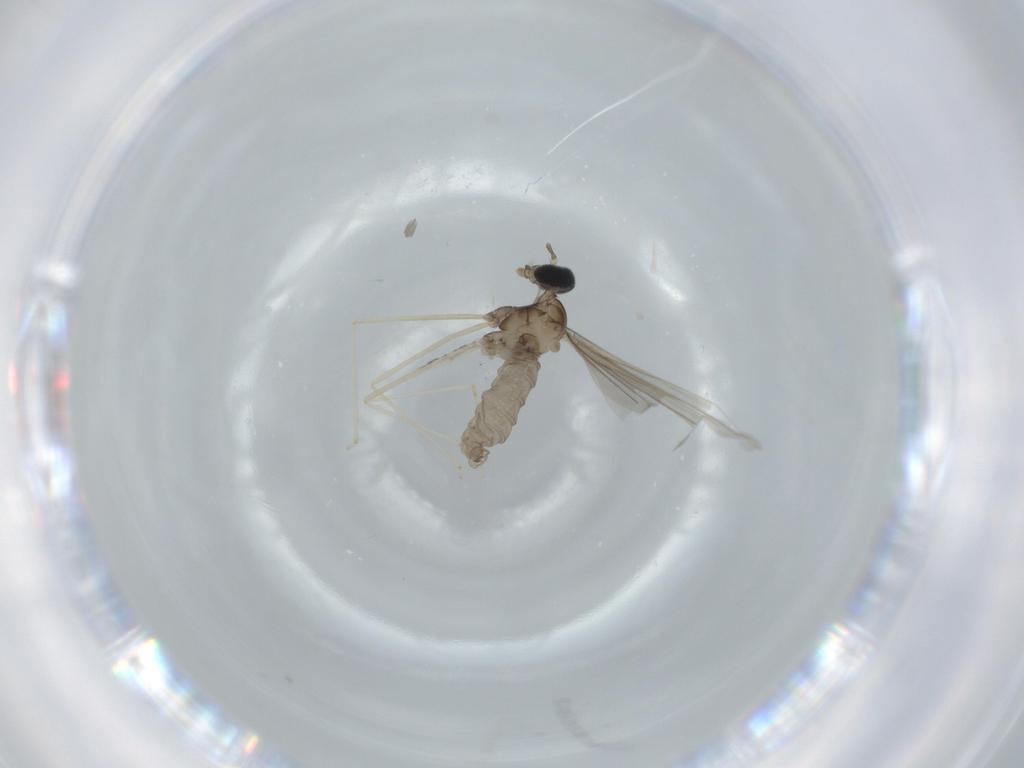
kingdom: Animalia
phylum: Arthropoda
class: Insecta
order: Diptera
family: Cecidomyiidae
